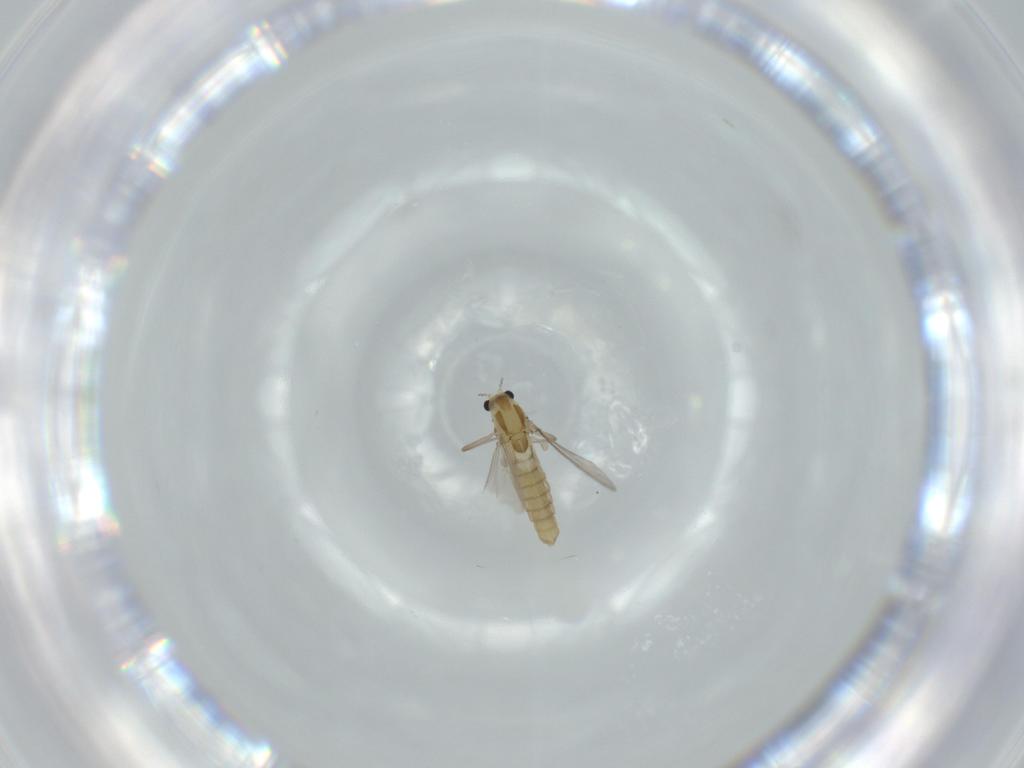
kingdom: Animalia
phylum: Arthropoda
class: Insecta
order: Diptera
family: Chironomidae
